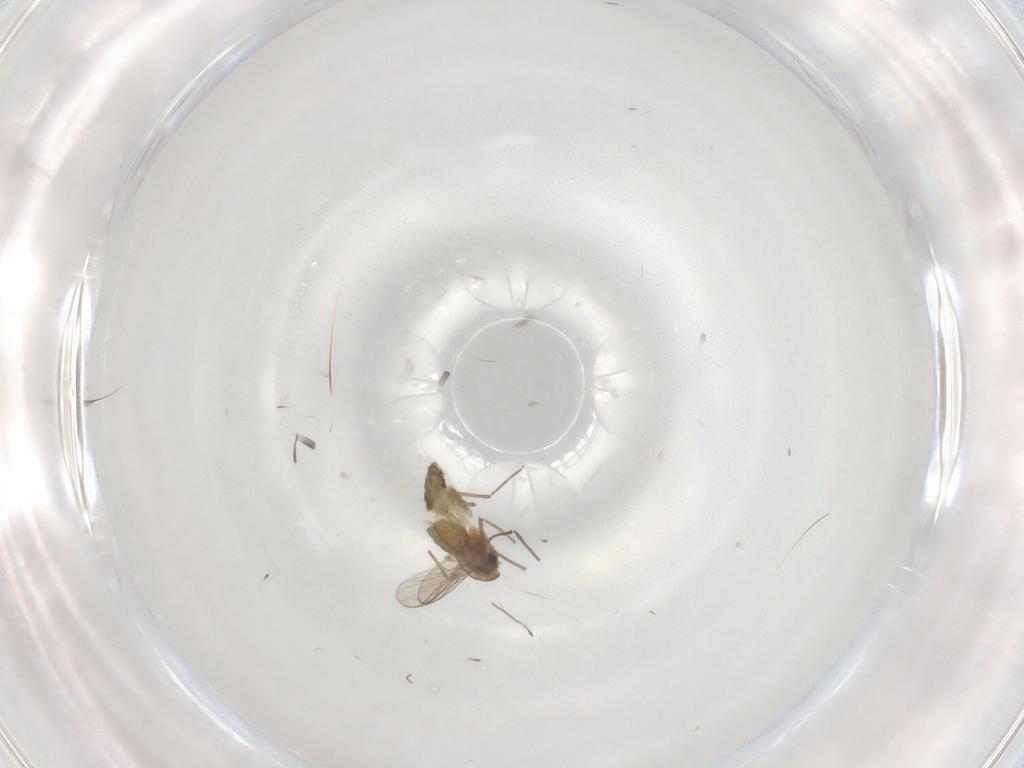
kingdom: Animalia
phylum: Arthropoda
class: Insecta
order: Diptera
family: Chironomidae
